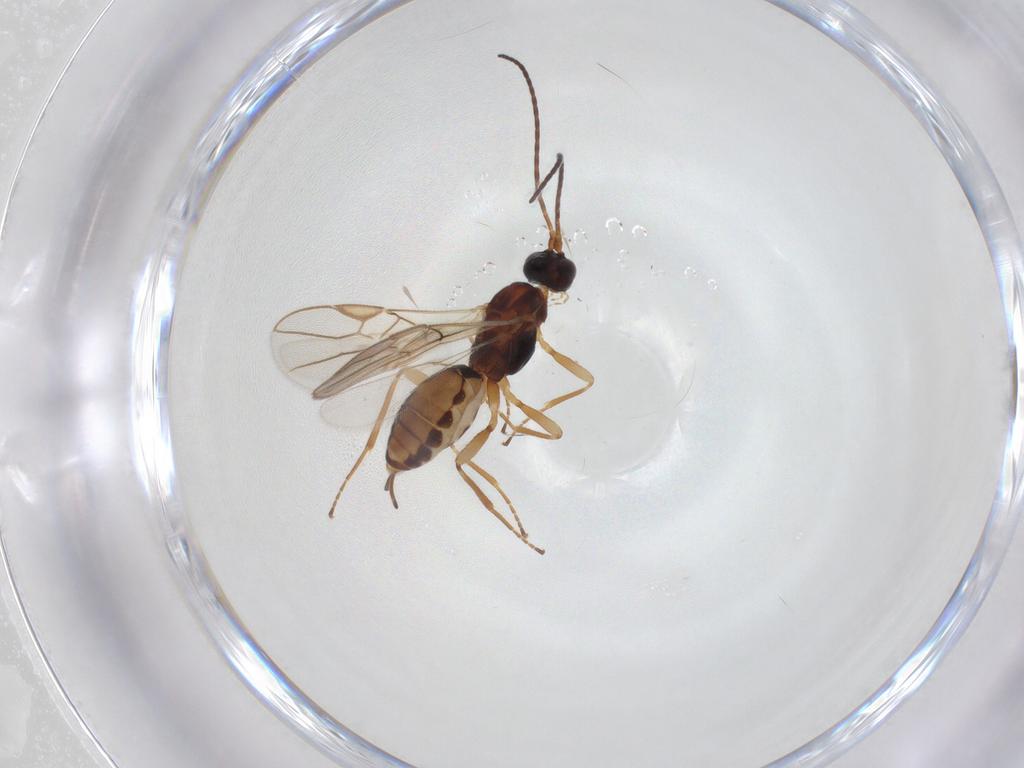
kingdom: Animalia
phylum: Arthropoda
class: Insecta
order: Hymenoptera
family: Braconidae
